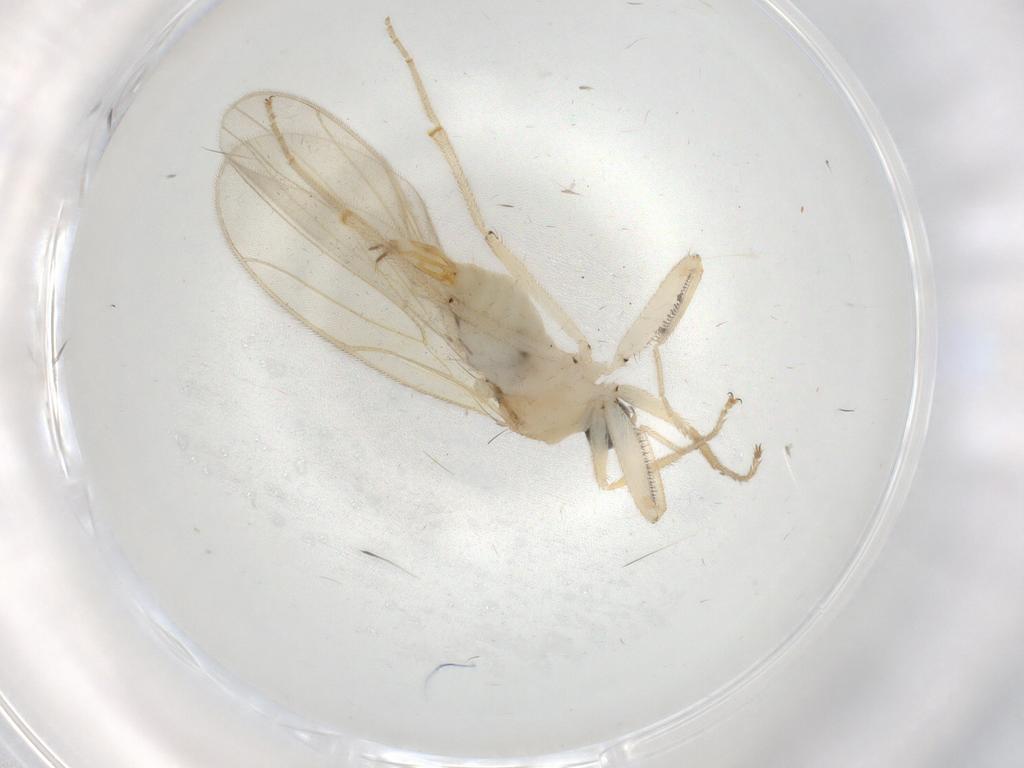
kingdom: Animalia
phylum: Arthropoda
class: Insecta
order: Diptera
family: Hybotidae
